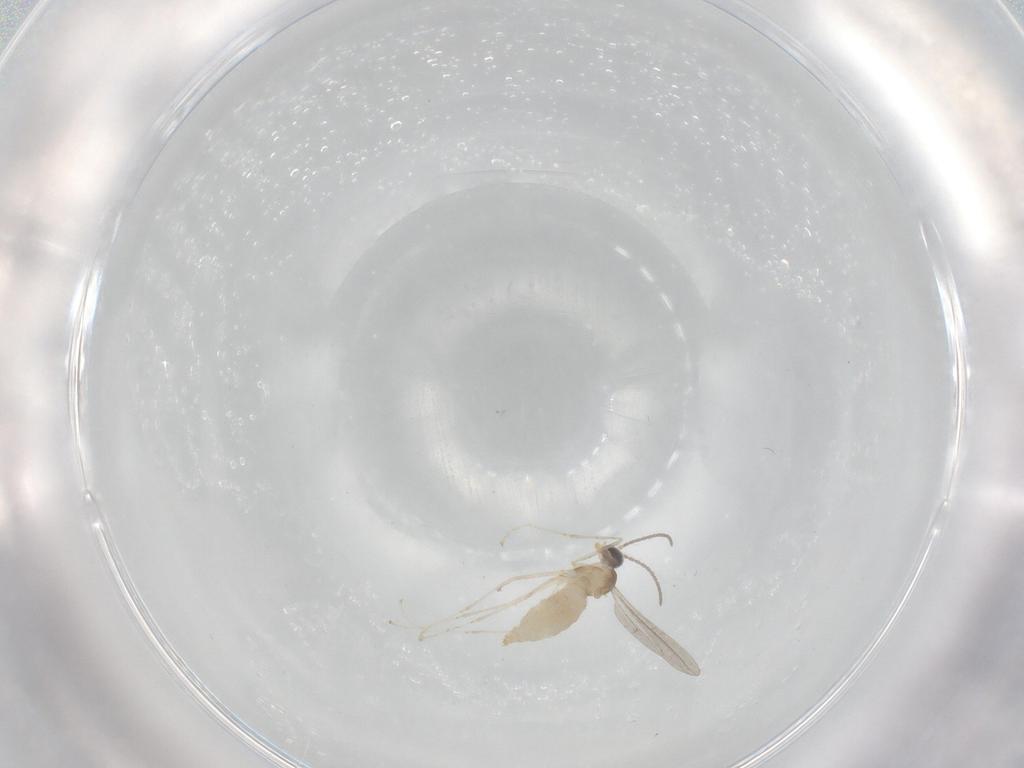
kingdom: Animalia
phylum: Arthropoda
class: Insecta
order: Diptera
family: Cecidomyiidae
